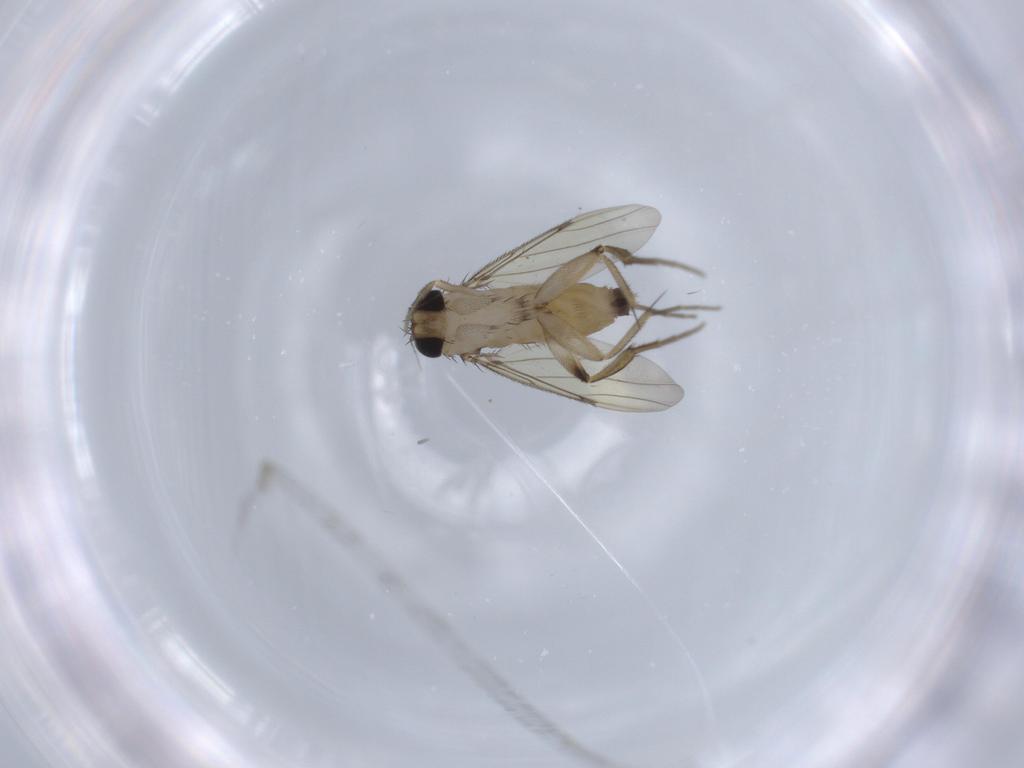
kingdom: Animalia
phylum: Arthropoda
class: Insecta
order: Diptera
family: Phoridae
